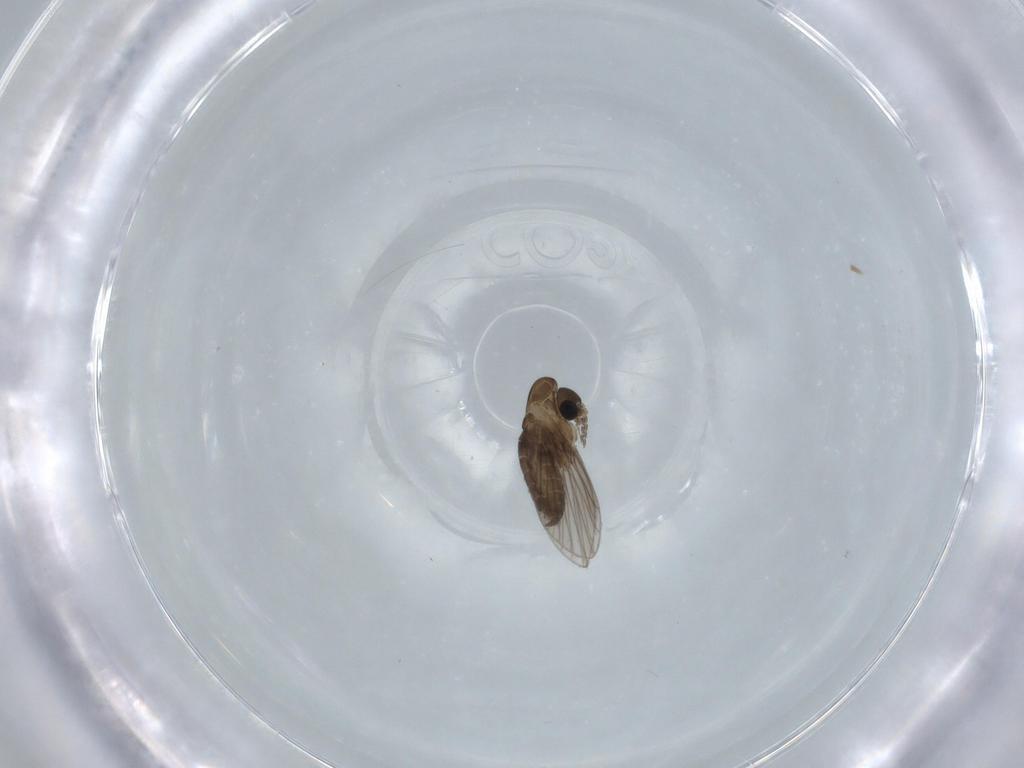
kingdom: Animalia
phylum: Arthropoda
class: Insecta
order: Diptera
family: Psychodidae
